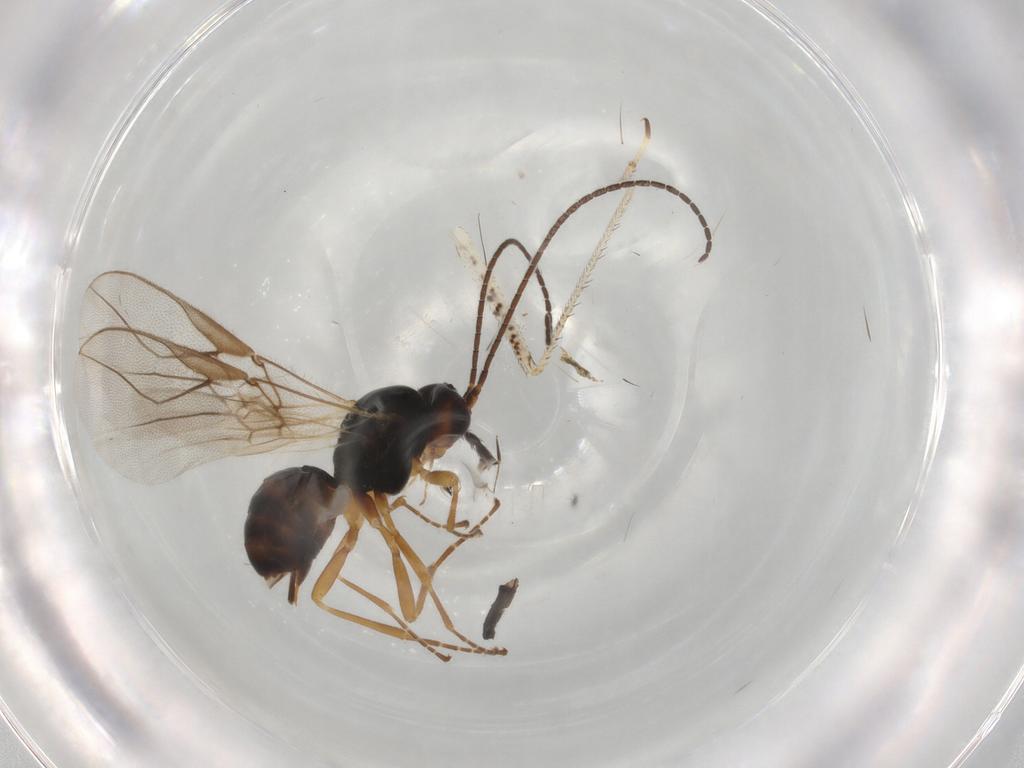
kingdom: Animalia
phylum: Arthropoda
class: Insecta
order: Hymenoptera
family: Braconidae
